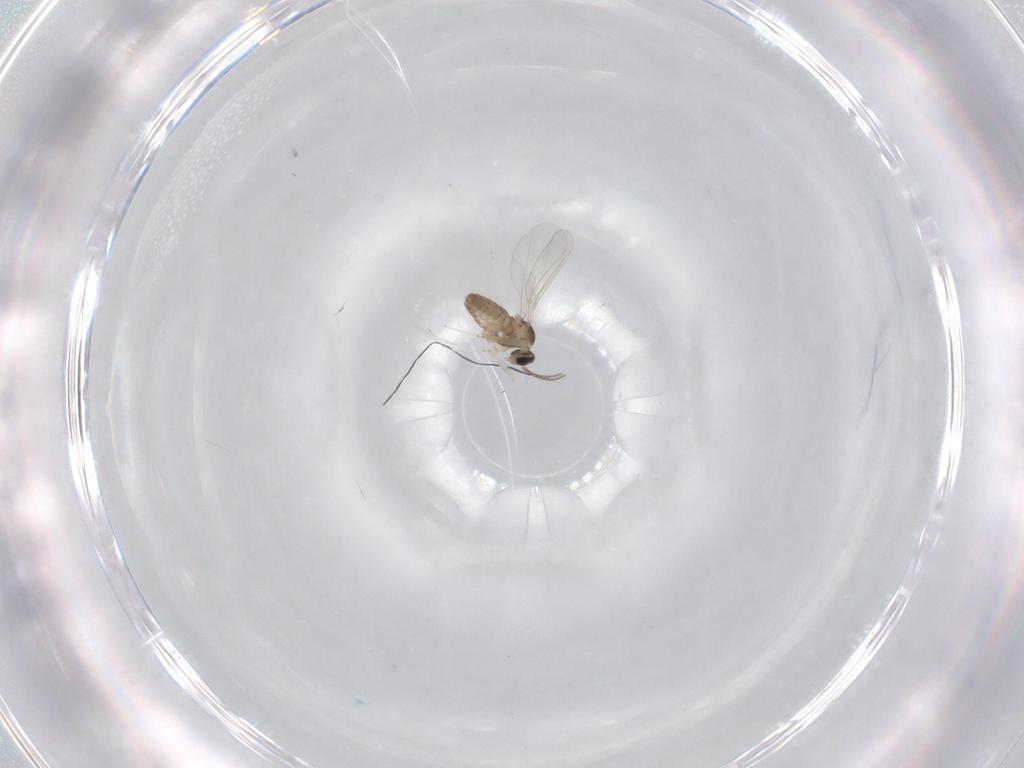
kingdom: Animalia
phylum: Arthropoda
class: Insecta
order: Diptera
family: Cecidomyiidae
